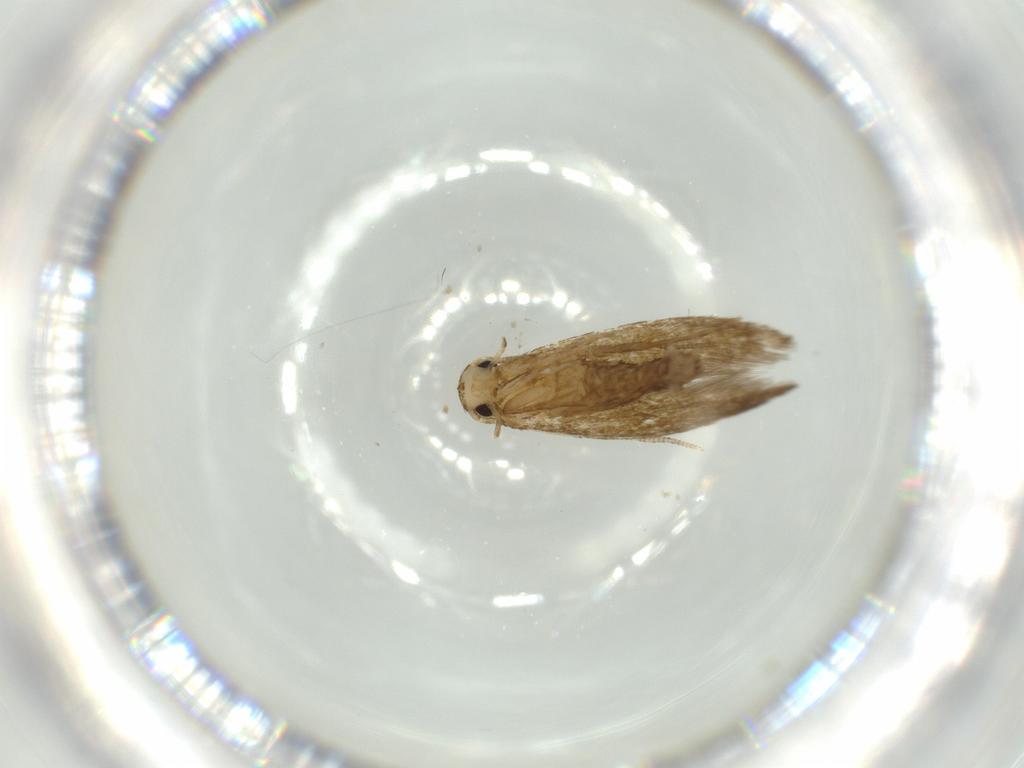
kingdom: Animalia
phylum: Arthropoda
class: Insecta
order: Lepidoptera
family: Tineidae
